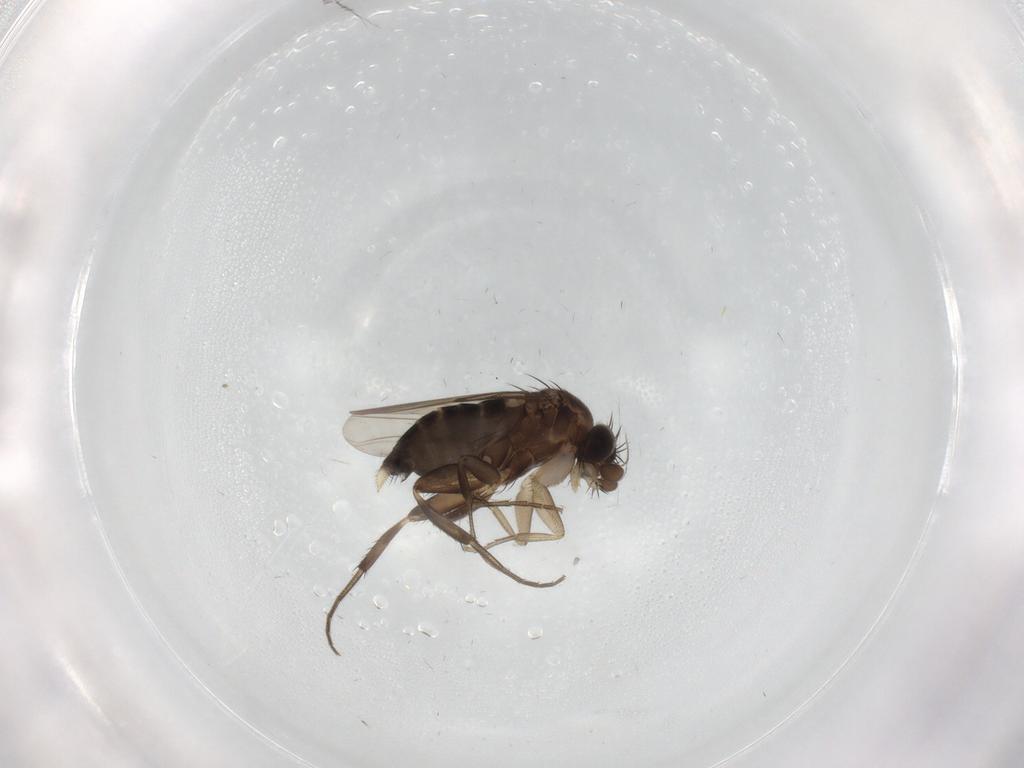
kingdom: Animalia
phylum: Arthropoda
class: Insecta
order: Diptera
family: Phoridae
